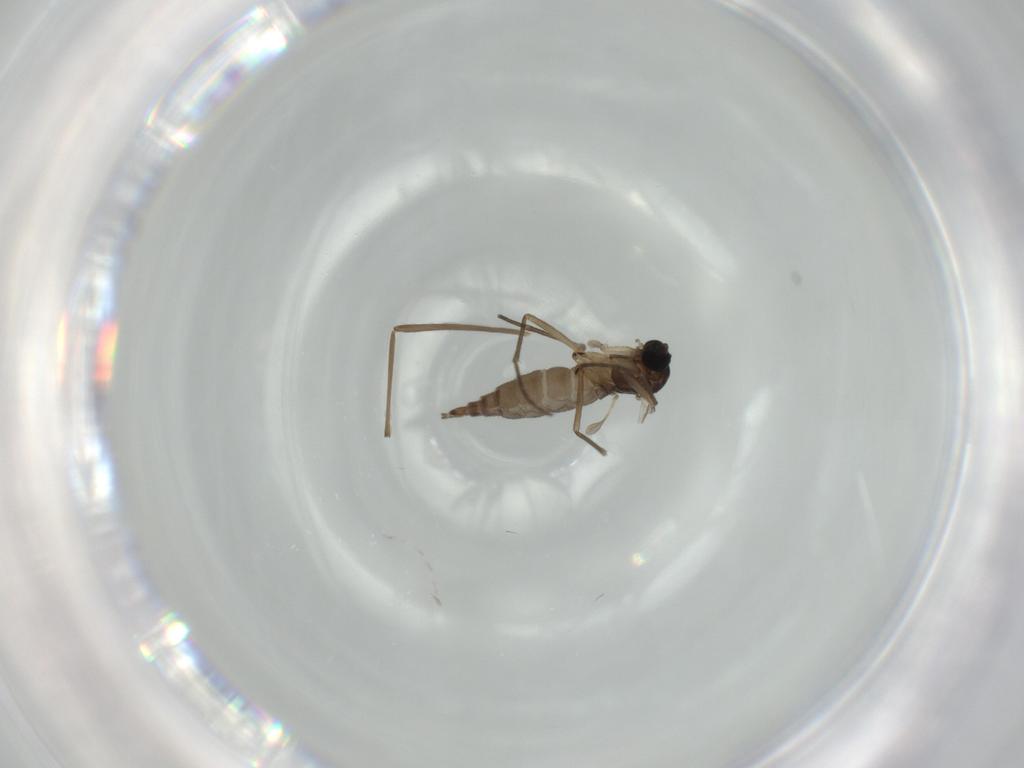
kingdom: Animalia
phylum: Arthropoda
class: Insecta
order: Diptera
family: Sciaridae
